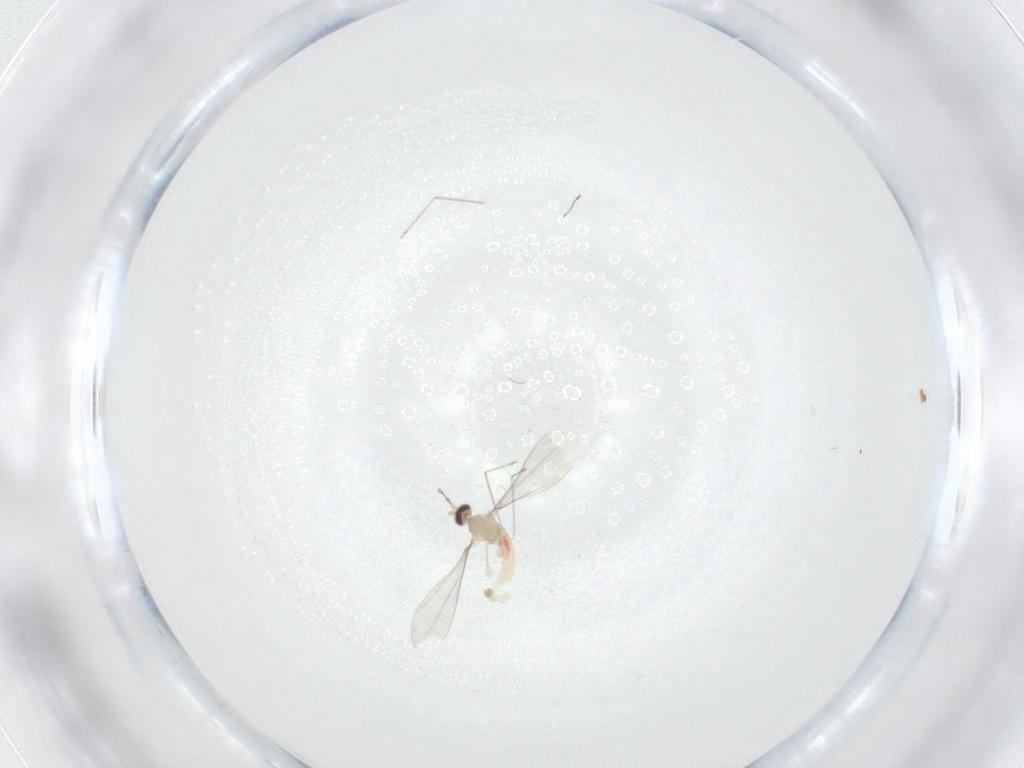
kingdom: Animalia
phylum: Arthropoda
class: Insecta
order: Diptera
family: Cecidomyiidae
